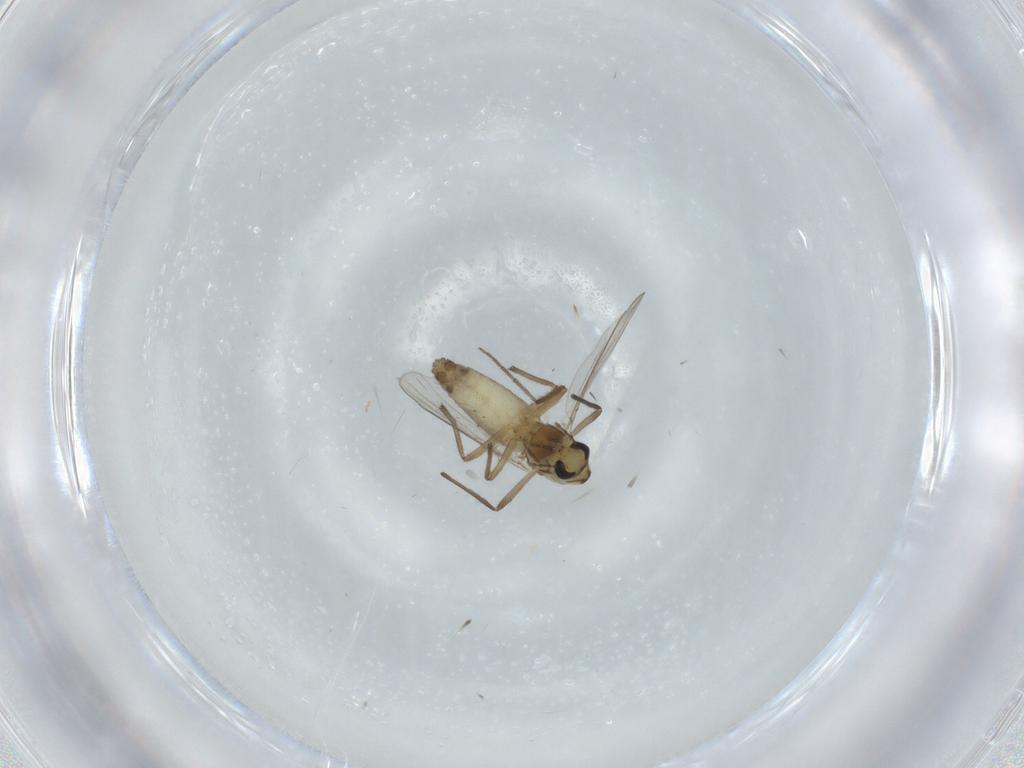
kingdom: Animalia
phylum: Arthropoda
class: Insecta
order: Diptera
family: Chironomidae
